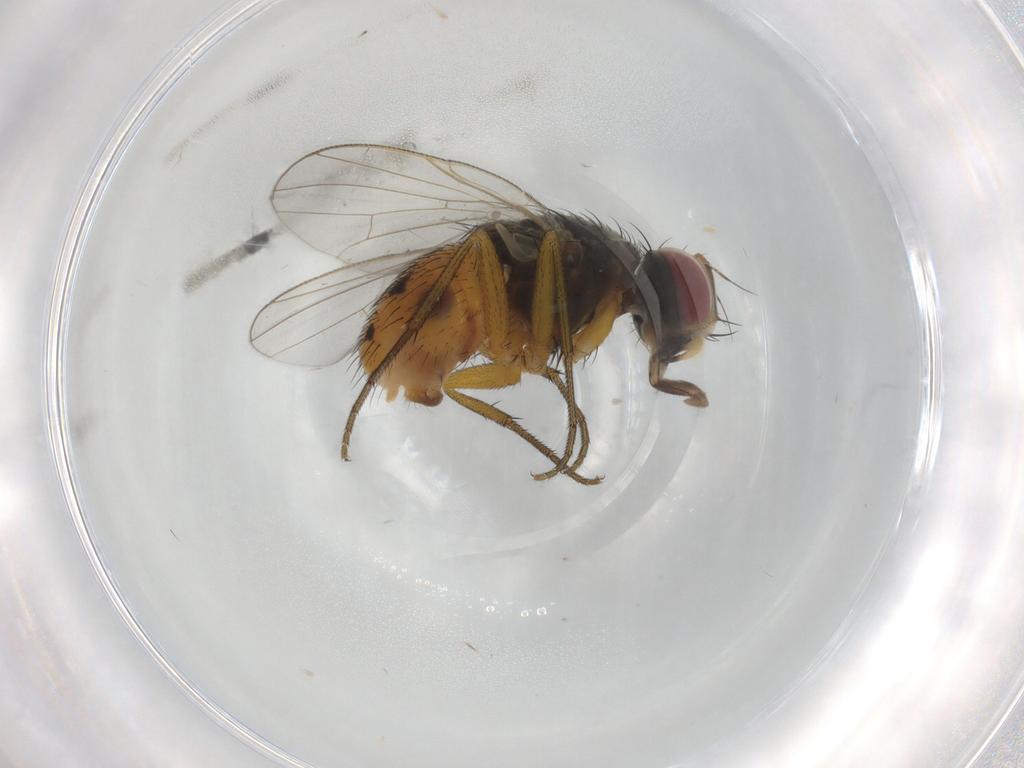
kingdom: Animalia
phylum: Arthropoda
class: Insecta
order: Diptera
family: Muscidae
